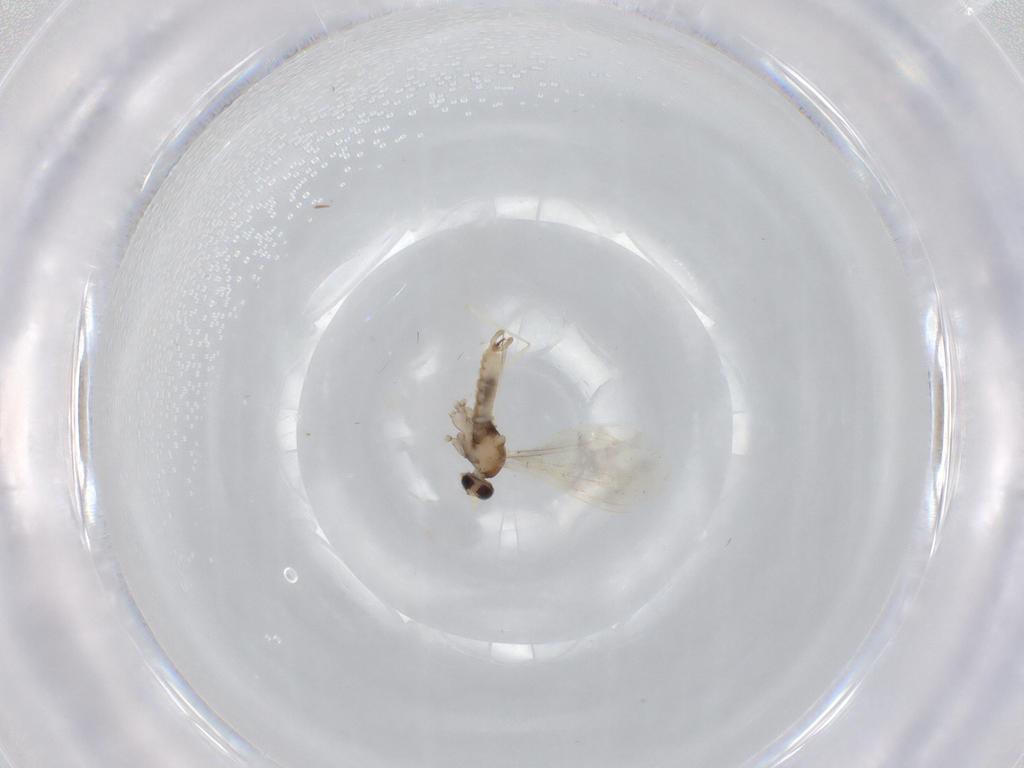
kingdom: Animalia
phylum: Arthropoda
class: Insecta
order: Diptera
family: Cecidomyiidae
